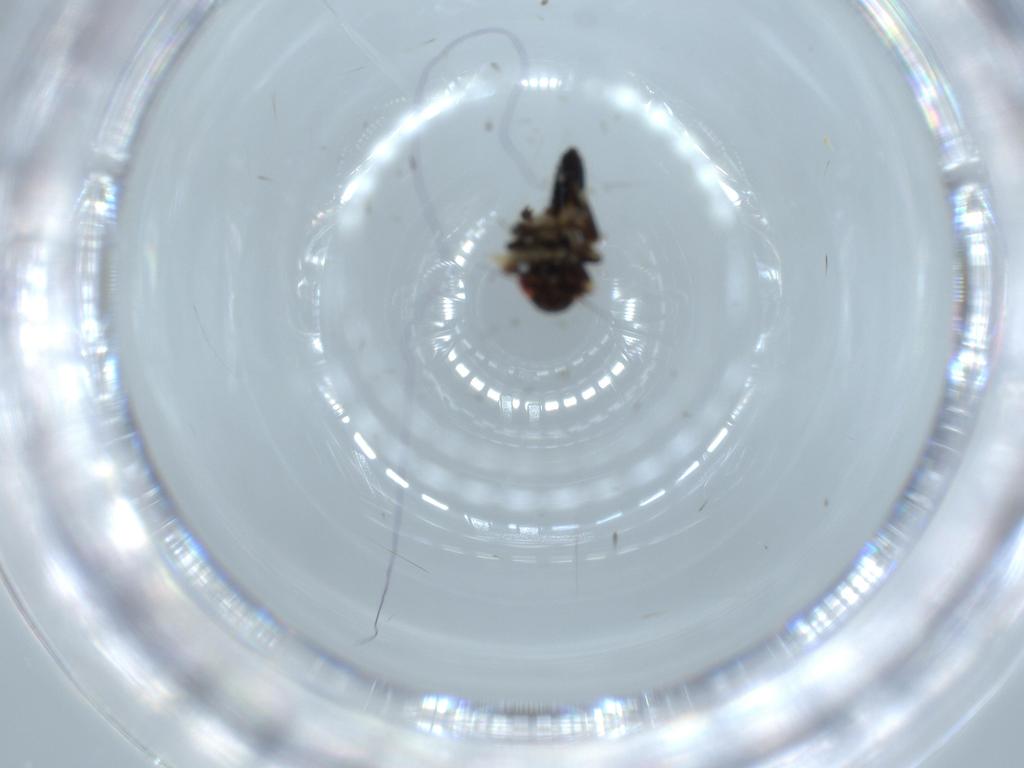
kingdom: Animalia
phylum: Arthropoda
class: Insecta
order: Hemiptera
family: Cicadellidae
